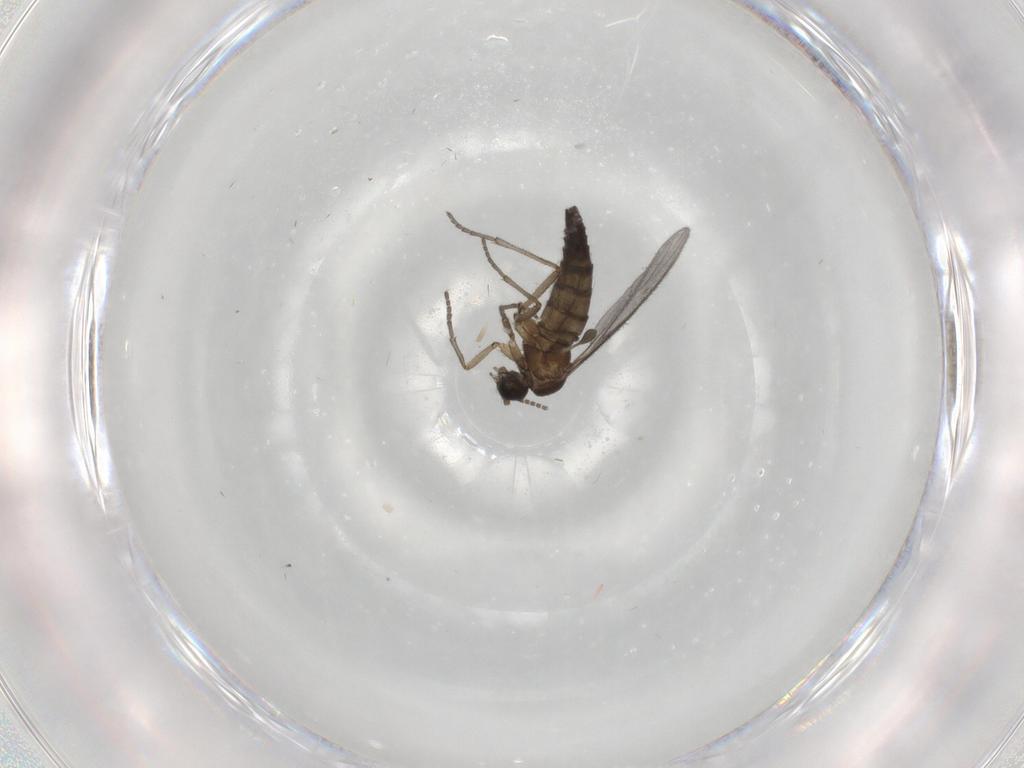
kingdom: Animalia
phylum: Arthropoda
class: Insecta
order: Diptera
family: Sciaridae
